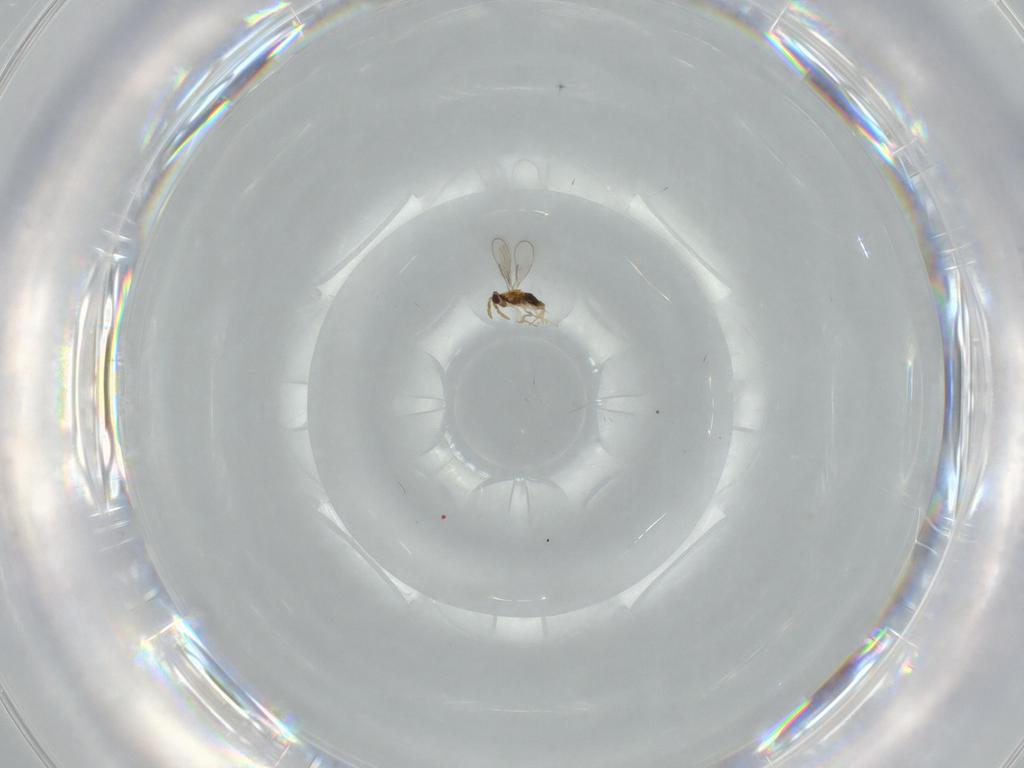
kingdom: Animalia
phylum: Arthropoda
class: Insecta
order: Hymenoptera
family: Aphelinidae
